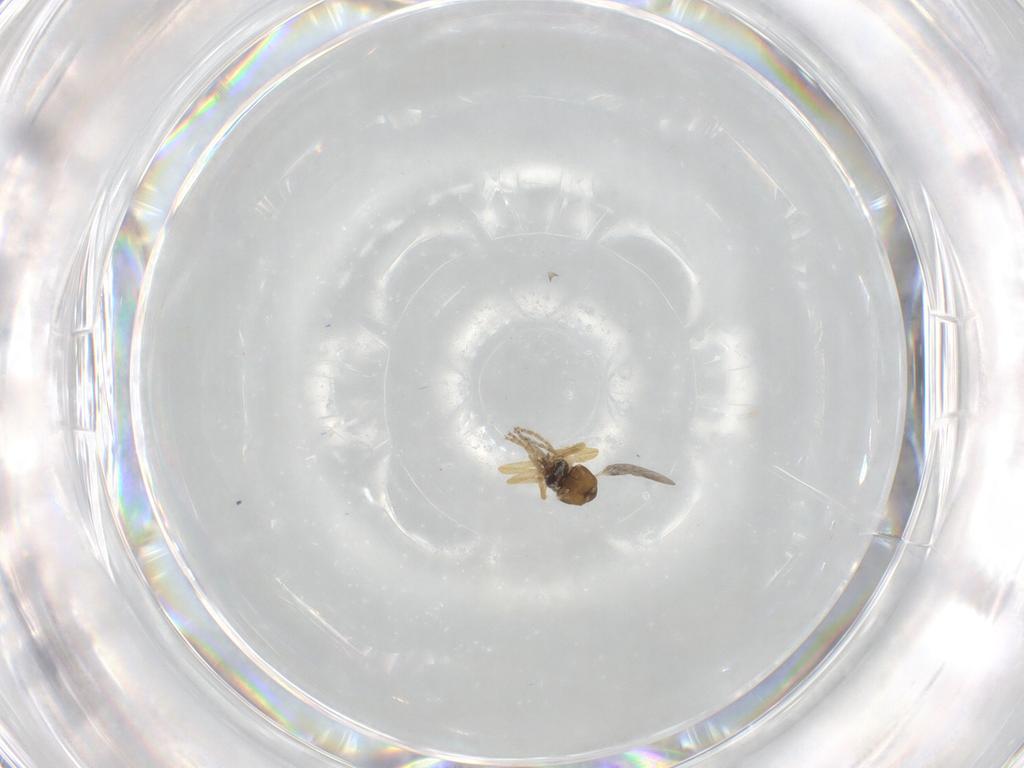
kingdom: Animalia
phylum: Arthropoda
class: Insecta
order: Diptera
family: Ceratopogonidae
